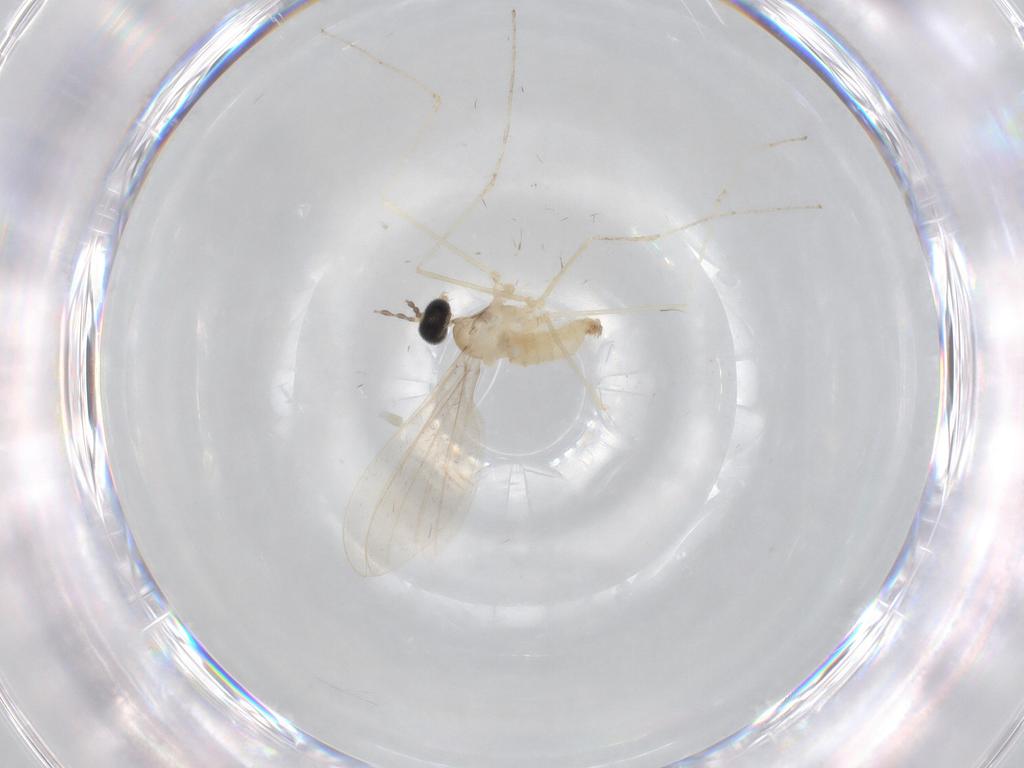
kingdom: Animalia
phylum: Arthropoda
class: Insecta
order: Diptera
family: Cecidomyiidae
